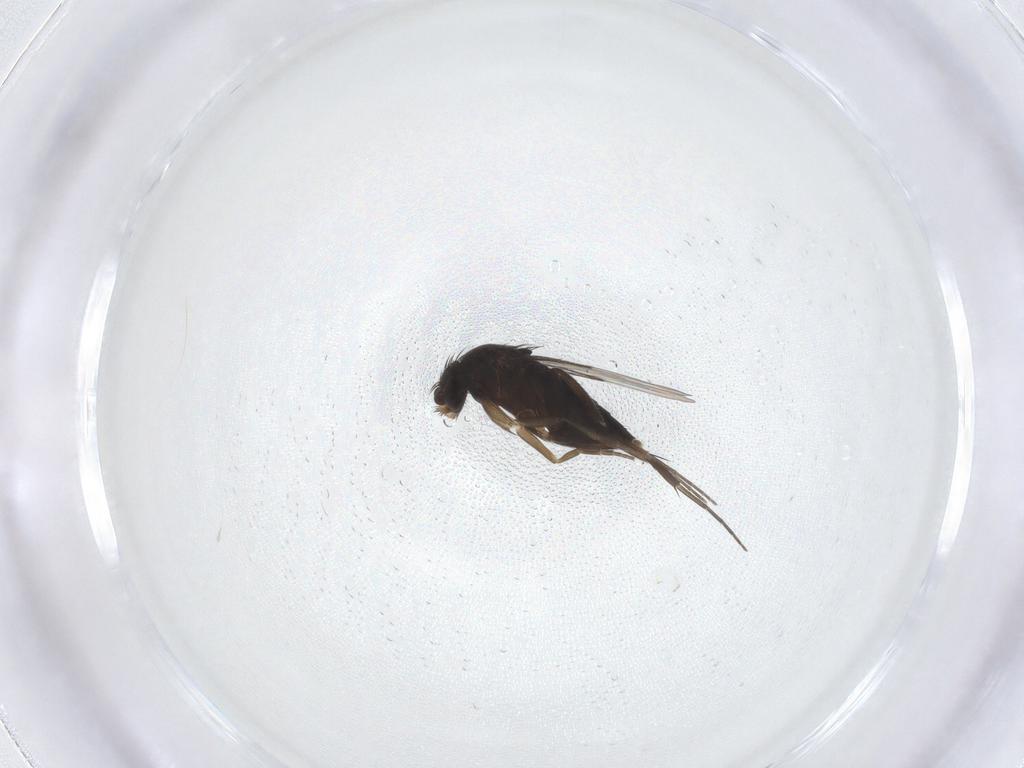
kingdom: Animalia
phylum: Arthropoda
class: Insecta
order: Diptera
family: Phoridae
